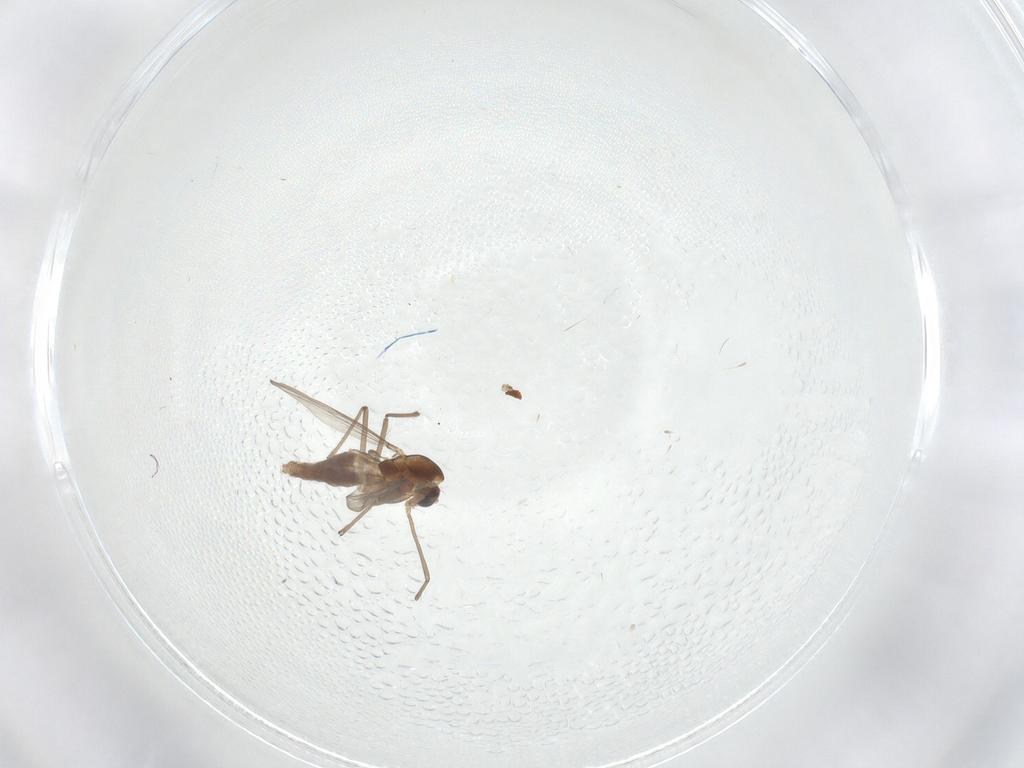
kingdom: Animalia
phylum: Arthropoda
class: Insecta
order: Diptera
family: Chironomidae
